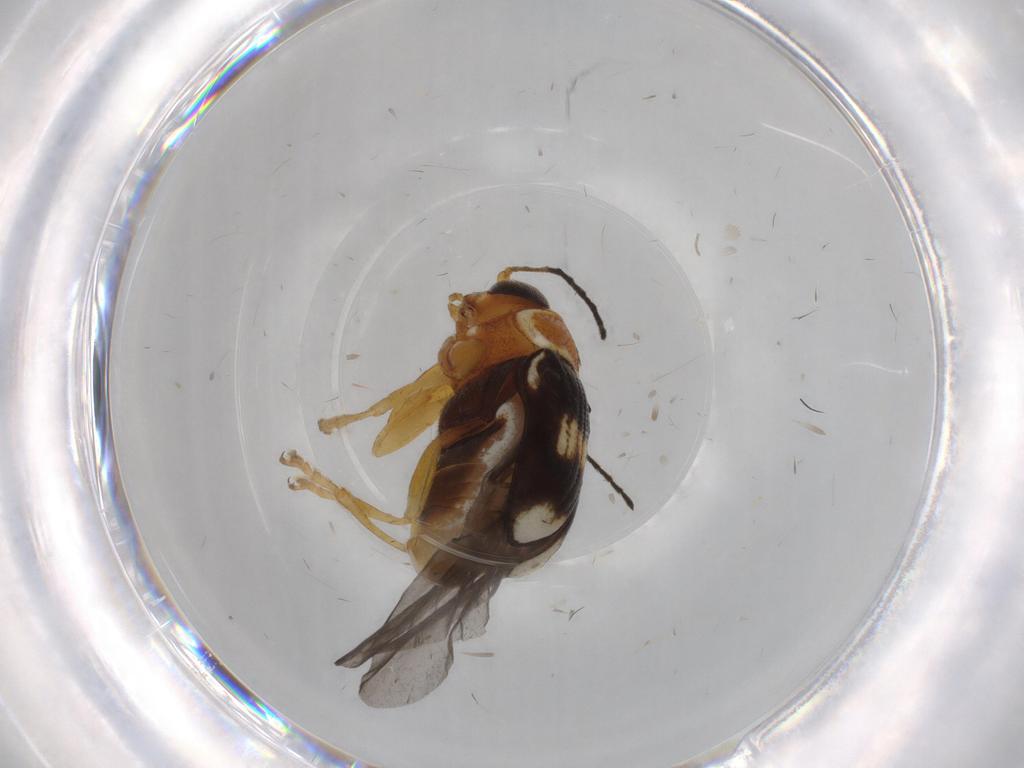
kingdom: Animalia
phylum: Arthropoda
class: Insecta
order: Coleoptera
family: Chrysomelidae
